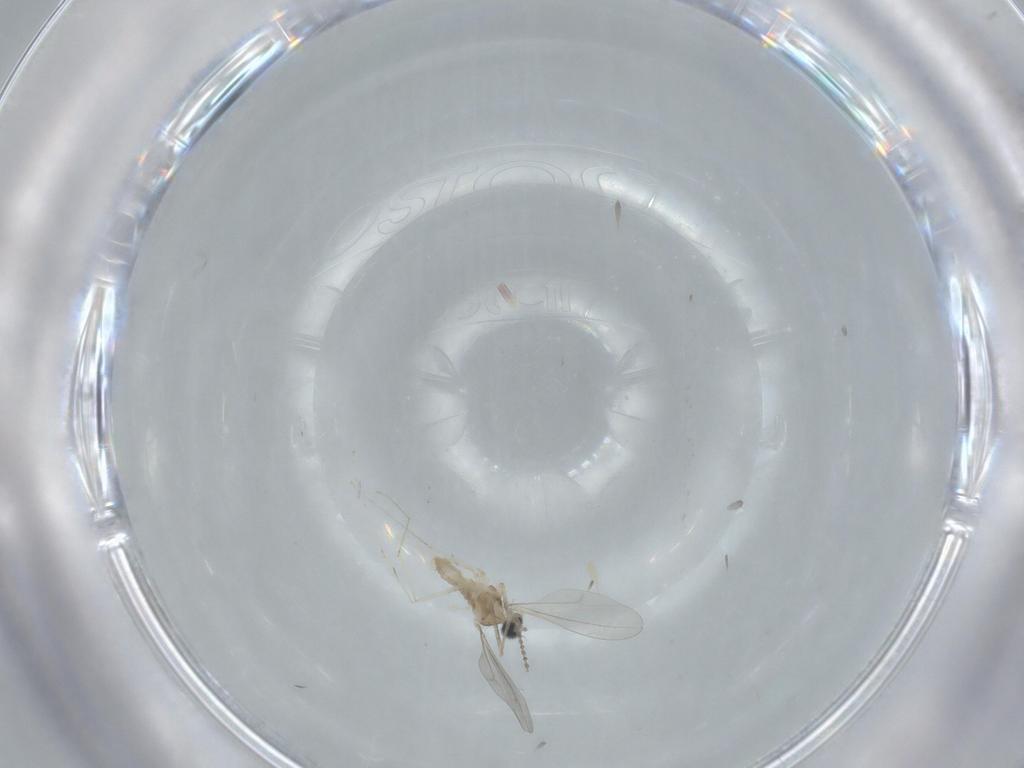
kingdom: Animalia
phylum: Arthropoda
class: Insecta
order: Diptera
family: Cecidomyiidae
